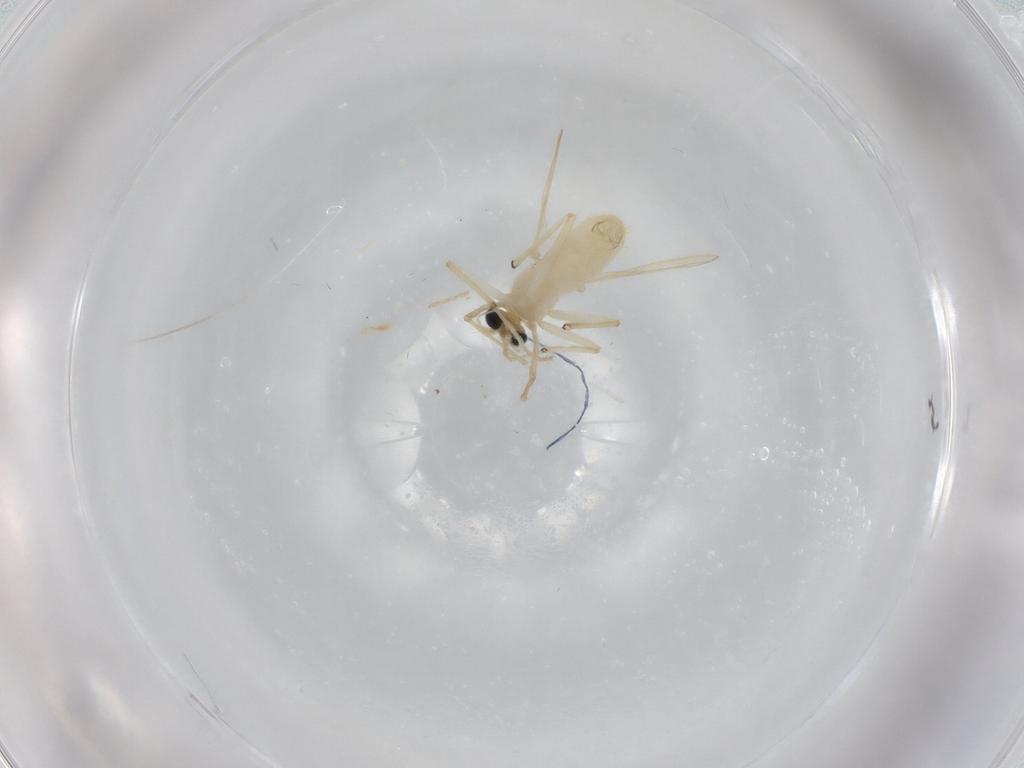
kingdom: Animalia
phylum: Arthropoda
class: Insecta
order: Diptera
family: Chironomidae
